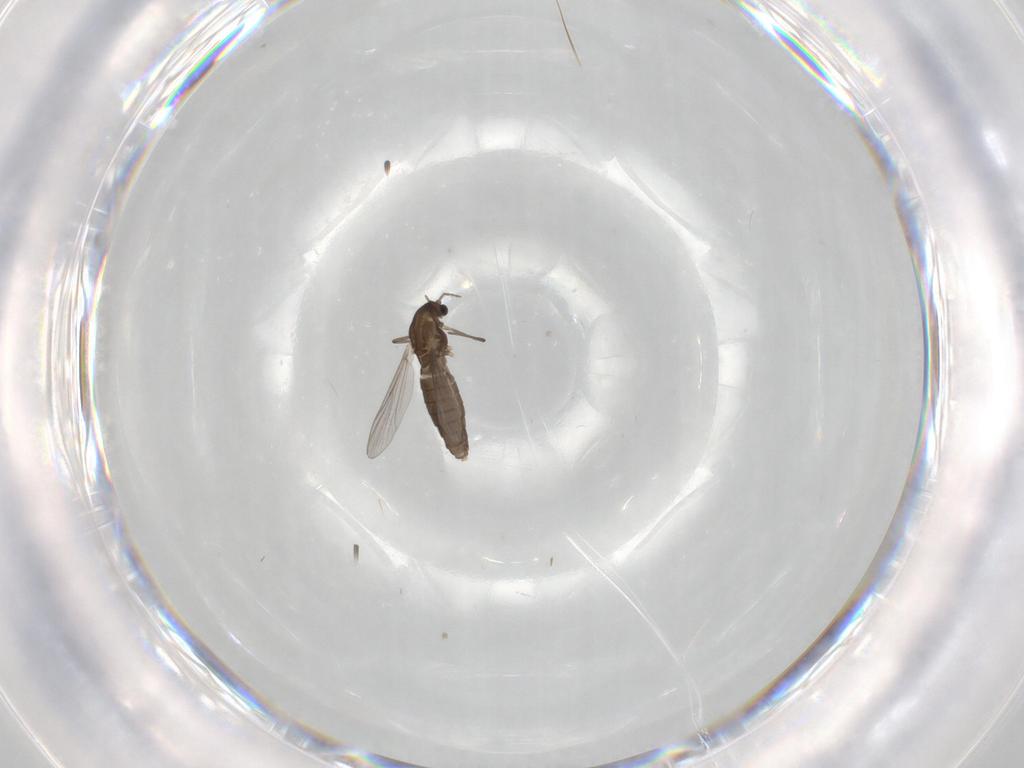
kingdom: Animalia
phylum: Arthropoda
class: Insecta
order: Diptera
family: Chironomidae
